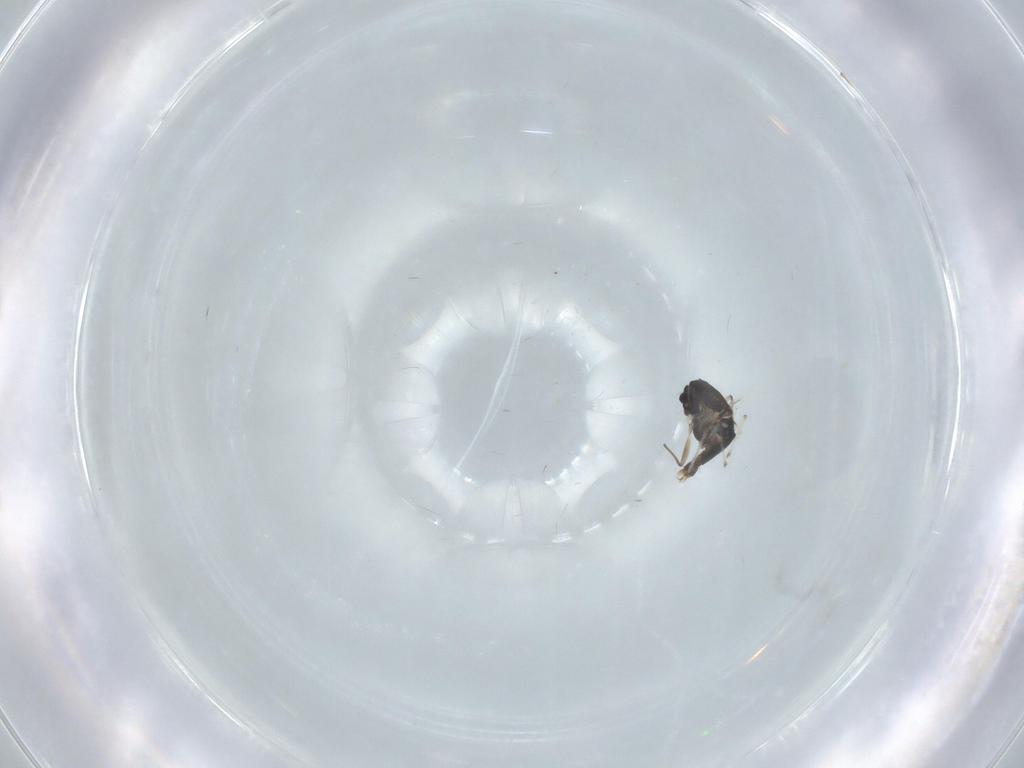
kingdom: Animalia
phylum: Arthropoda
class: Insecta
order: Diptera
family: Chironomidae
